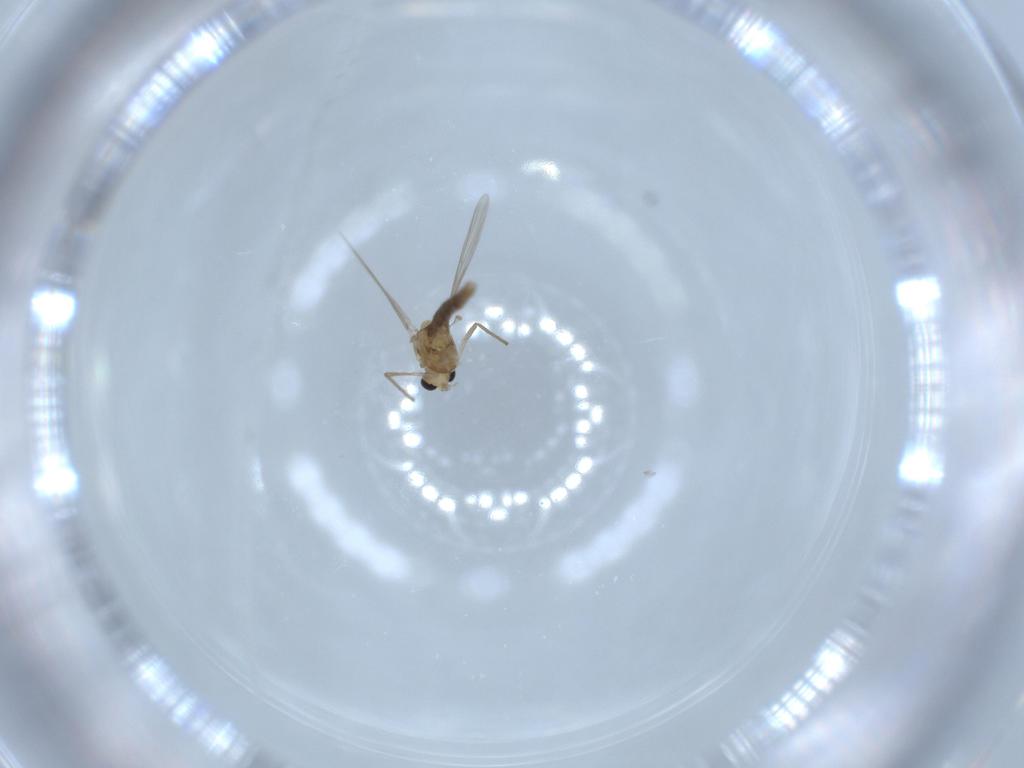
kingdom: Animalia
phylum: Arthropoda
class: Insecta
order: Diptera
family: Chironomidae
